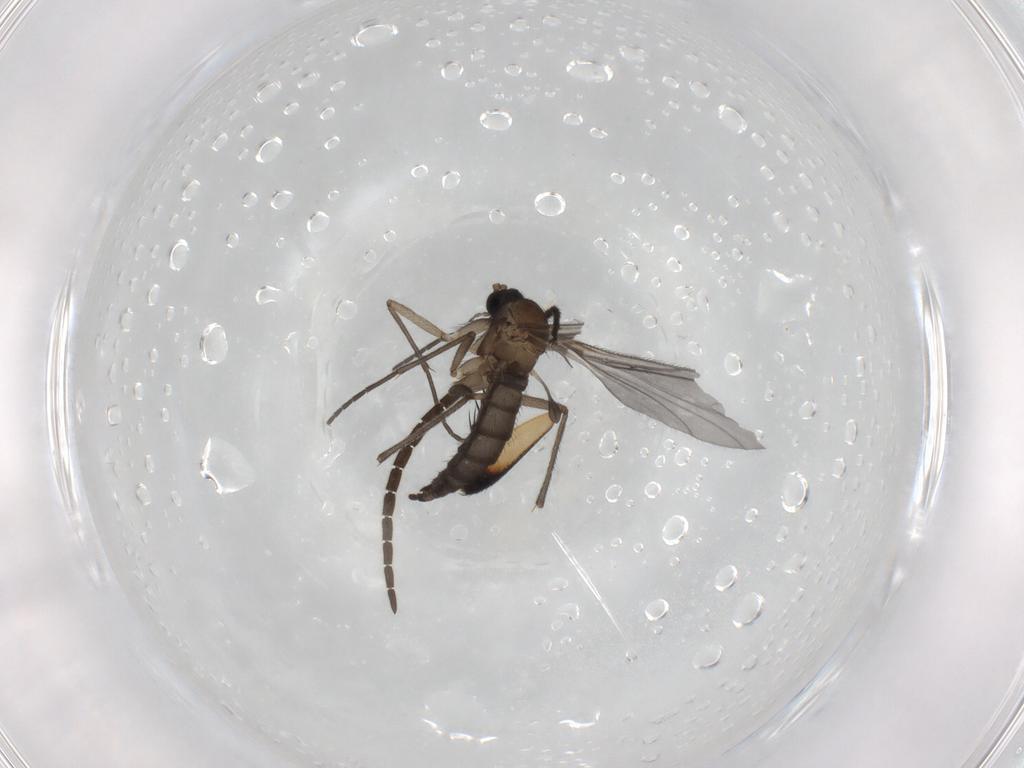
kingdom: Animalia
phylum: Arthropoda
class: Insecta
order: Diptera
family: Sciaridae
